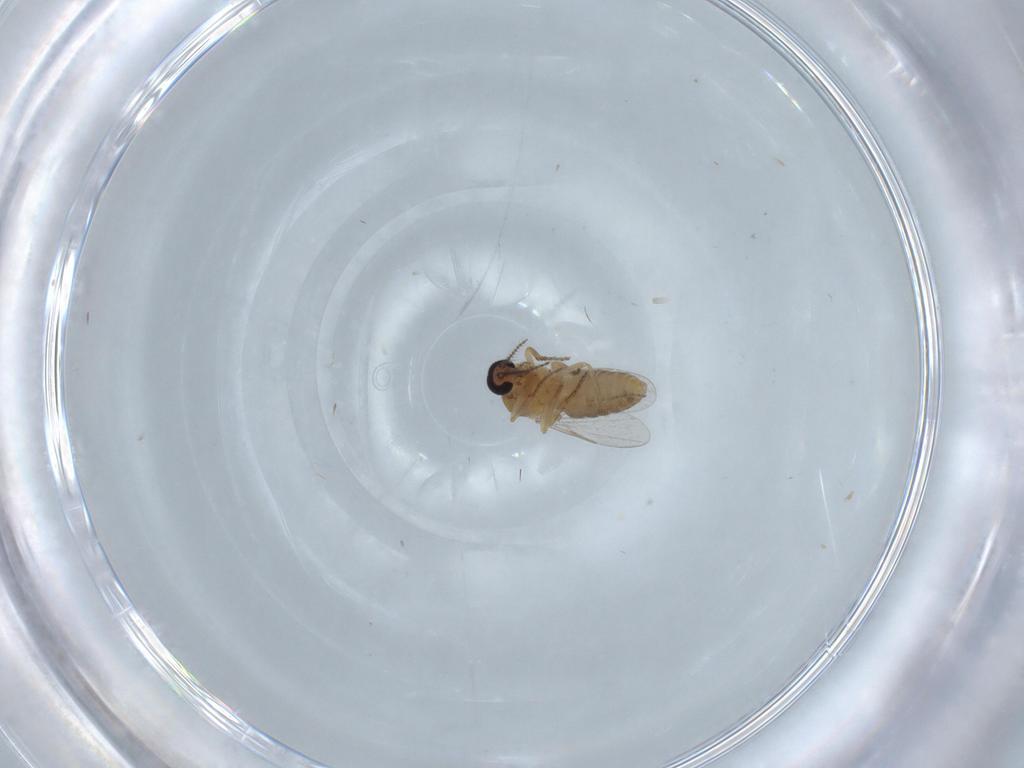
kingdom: Animalia
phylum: Arthropoda
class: Insecta
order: Diptera
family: Ceratopogonidae
